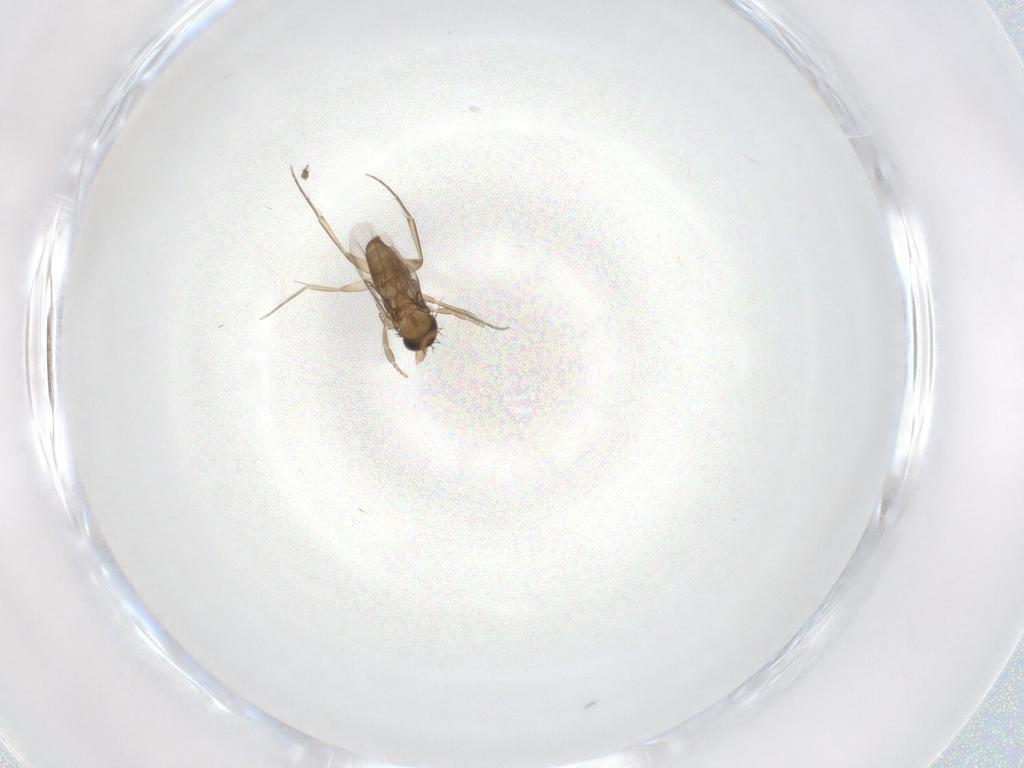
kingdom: Animalia
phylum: Arthropoda
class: Insecta
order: Diptera
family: Phoridae
